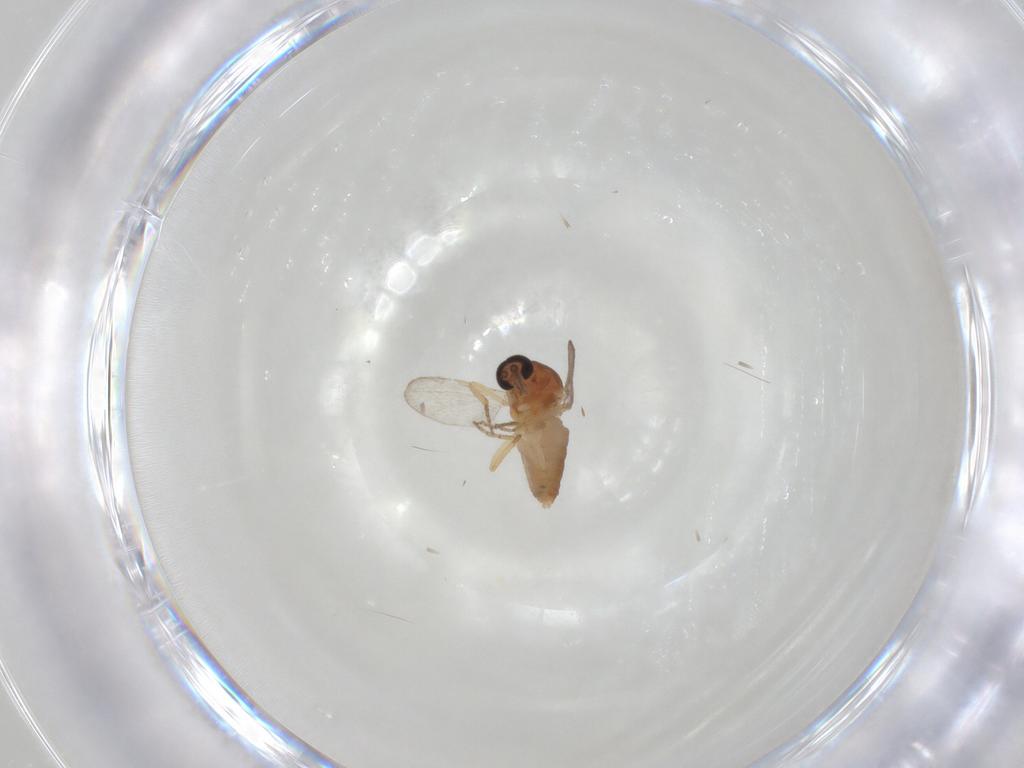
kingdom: Animalia
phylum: Arthropoda
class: Insecta
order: Diptera
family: Ceratopogonidae
